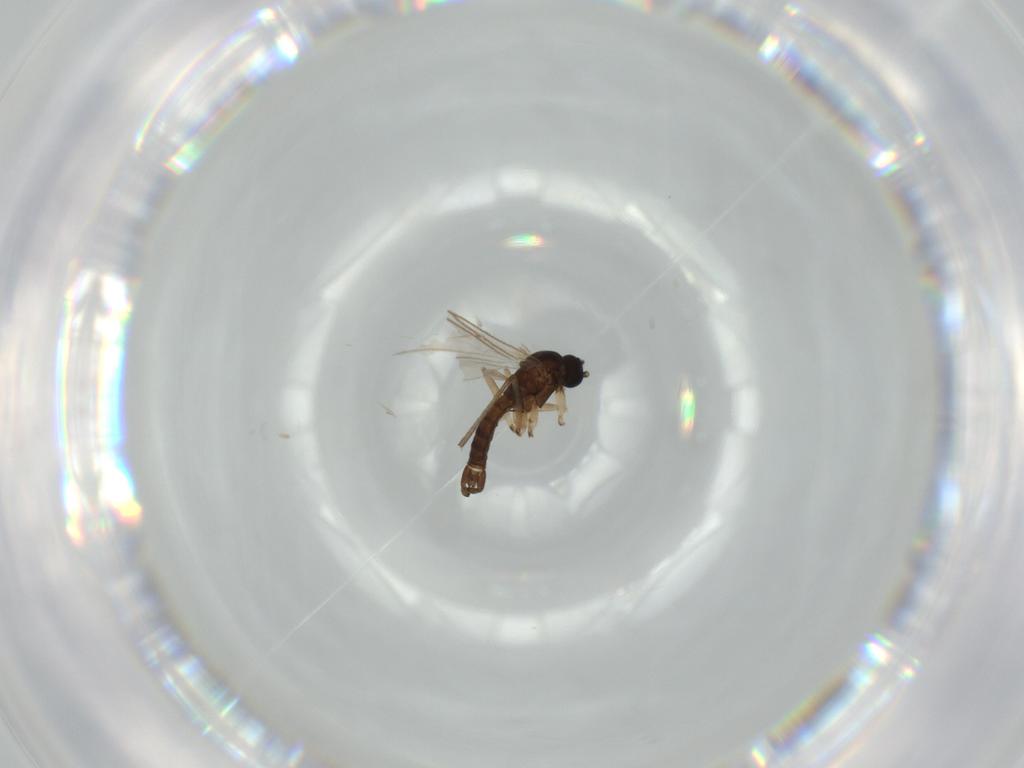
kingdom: Animalia
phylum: Arthropoda
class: Insecta
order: Diptera
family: Sciaridae
